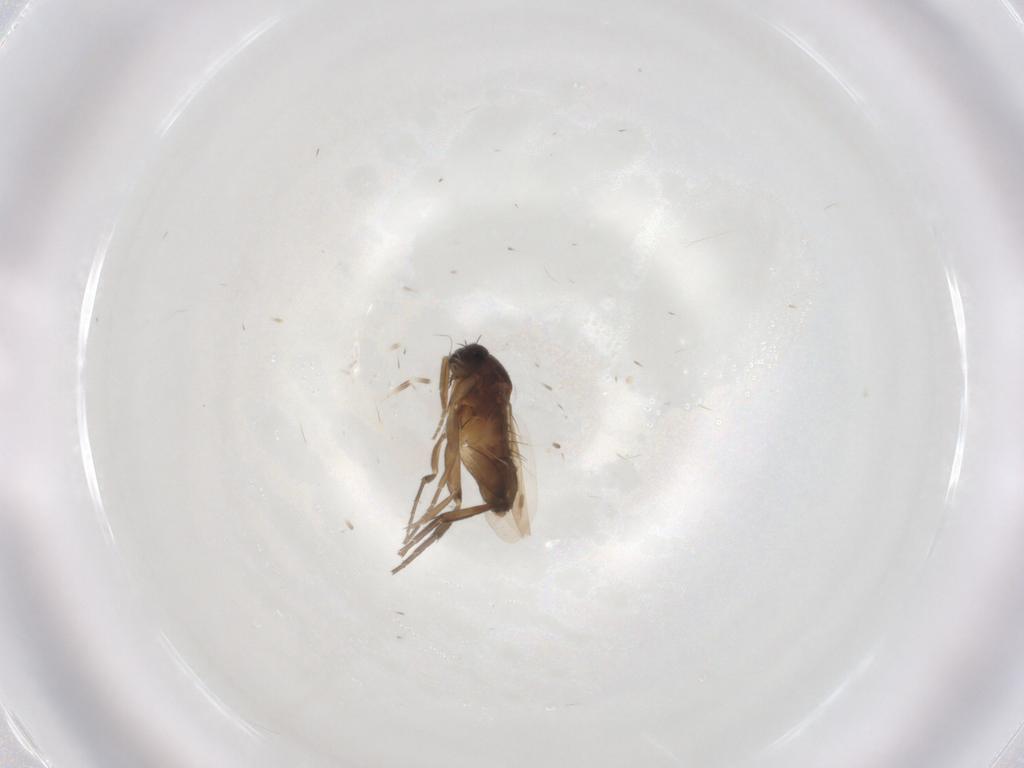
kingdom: Animalia
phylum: Arthropoda
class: Insecta
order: Diptera
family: Phoridae
